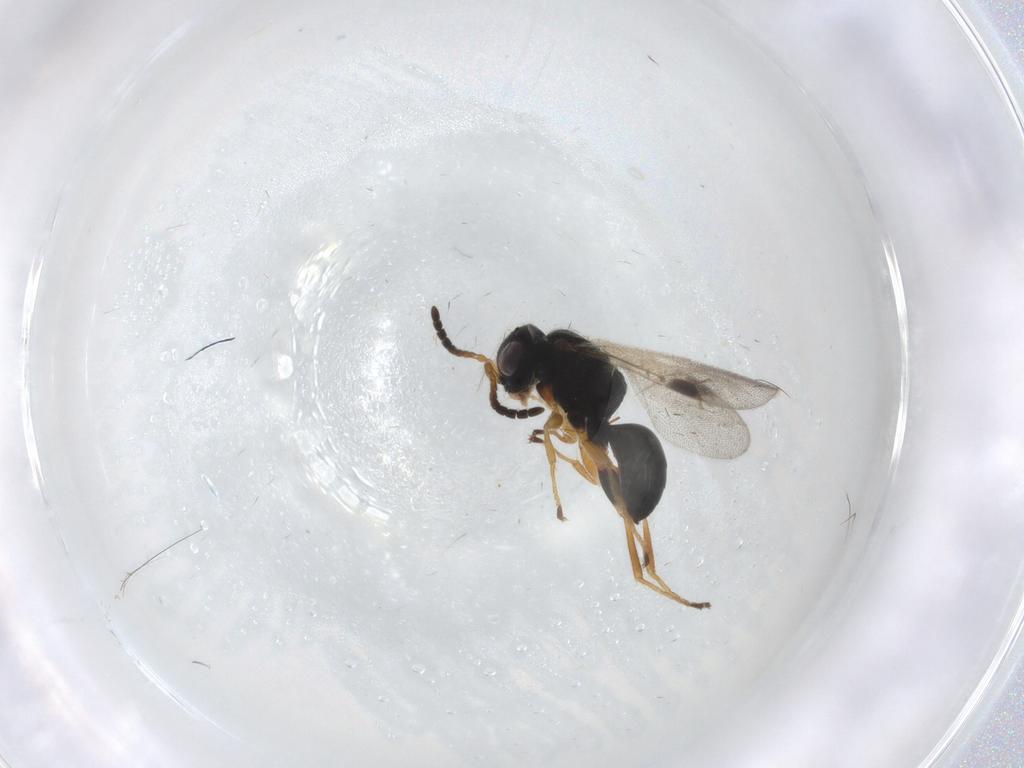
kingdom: Animalia
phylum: Arthropoda
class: Insecta
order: Hymenoptera
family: Dryinidae
